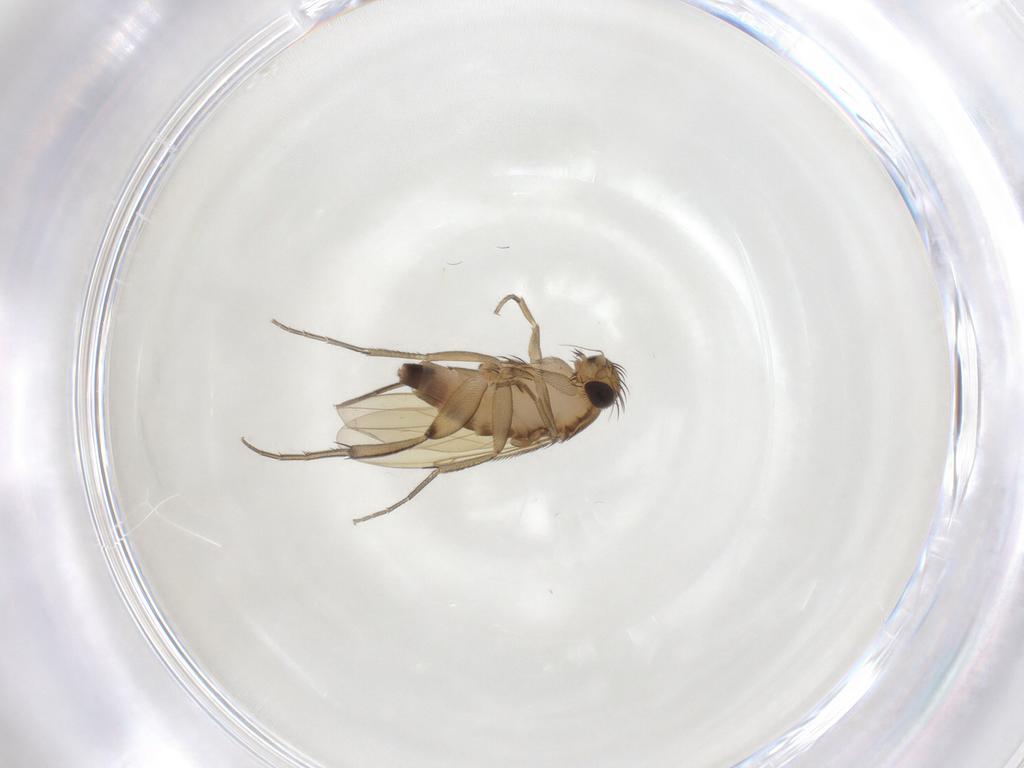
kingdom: Animalia
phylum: Arthropoda
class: Insecta
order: Diptera
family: Phoridae
